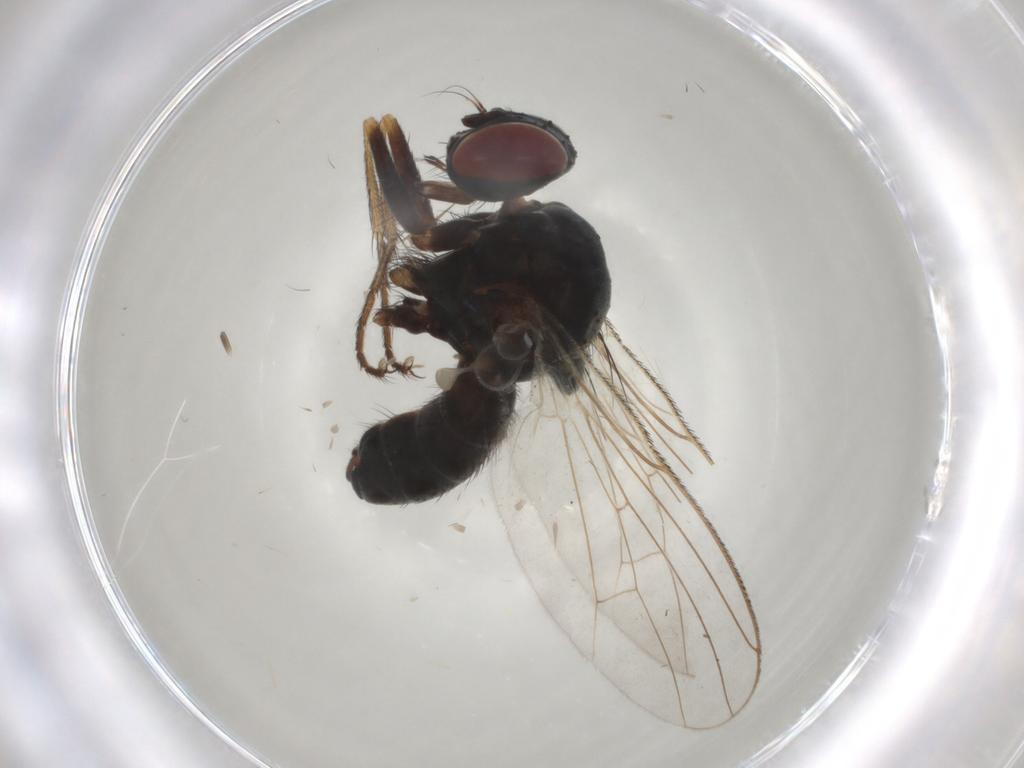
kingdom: Animalia
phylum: Arthropoda
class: Insecta
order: Diptera
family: Muscidae
